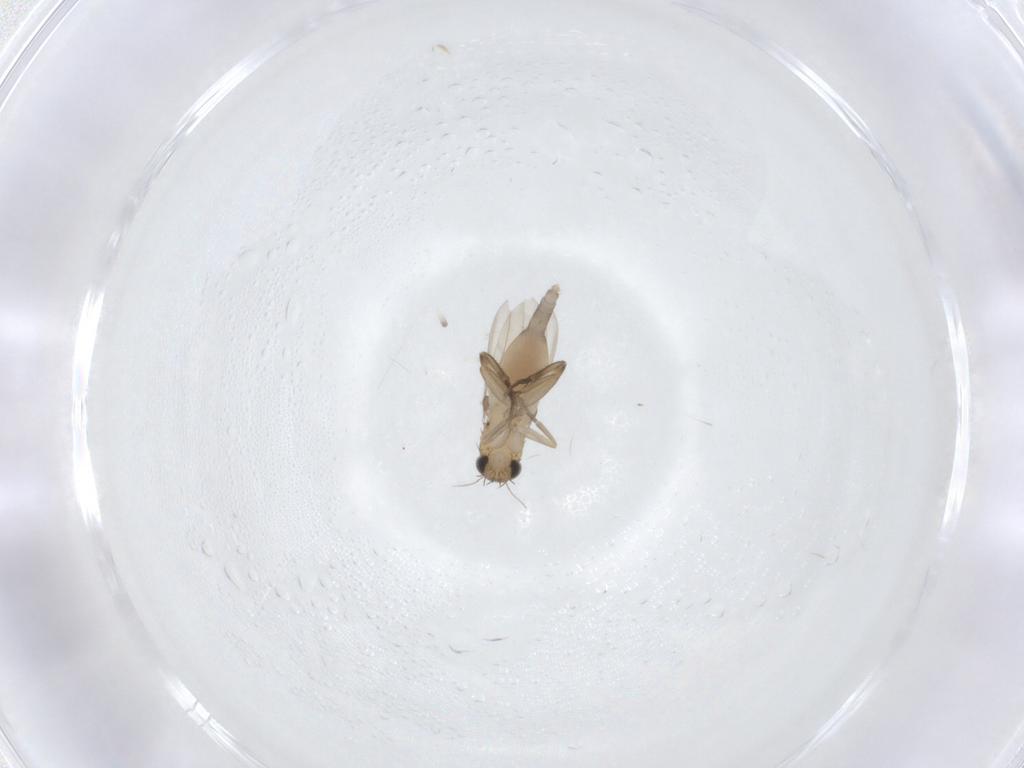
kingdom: Animalia
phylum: Arthropoda
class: Insecta
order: Diptera
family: Phoridae
